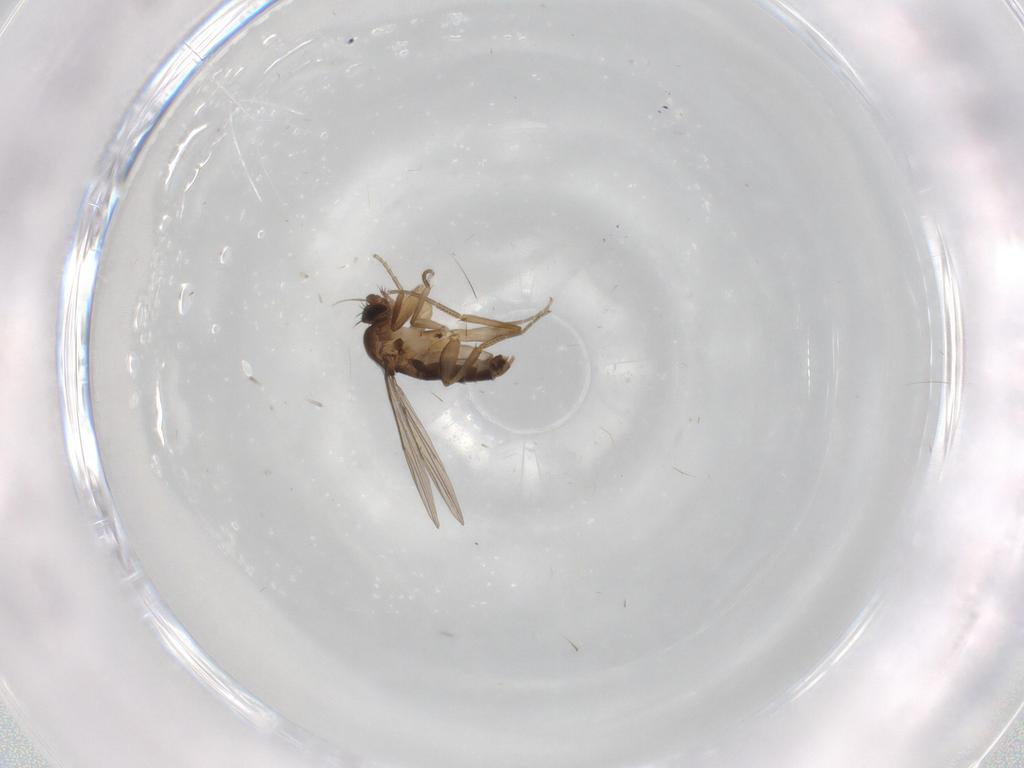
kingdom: Animalia
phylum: Arthropoda
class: Insecta
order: Diptera
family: Phoridae
